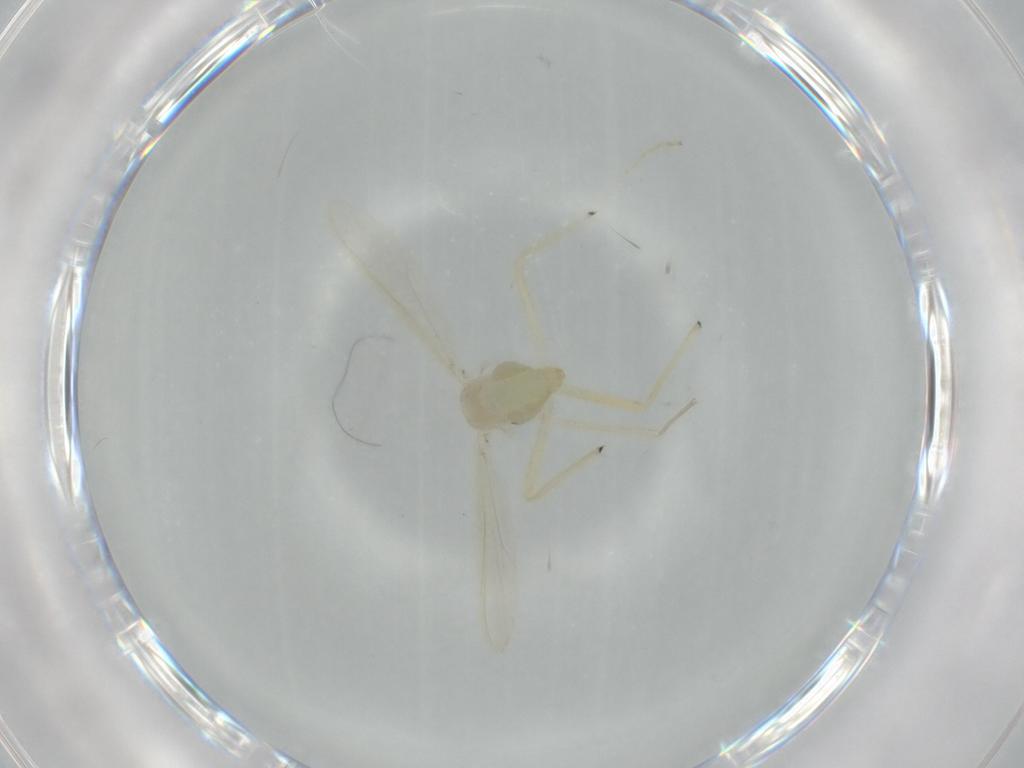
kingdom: Animalia
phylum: Arthropoda
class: Insecta
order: Diptera
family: Chironomidae
